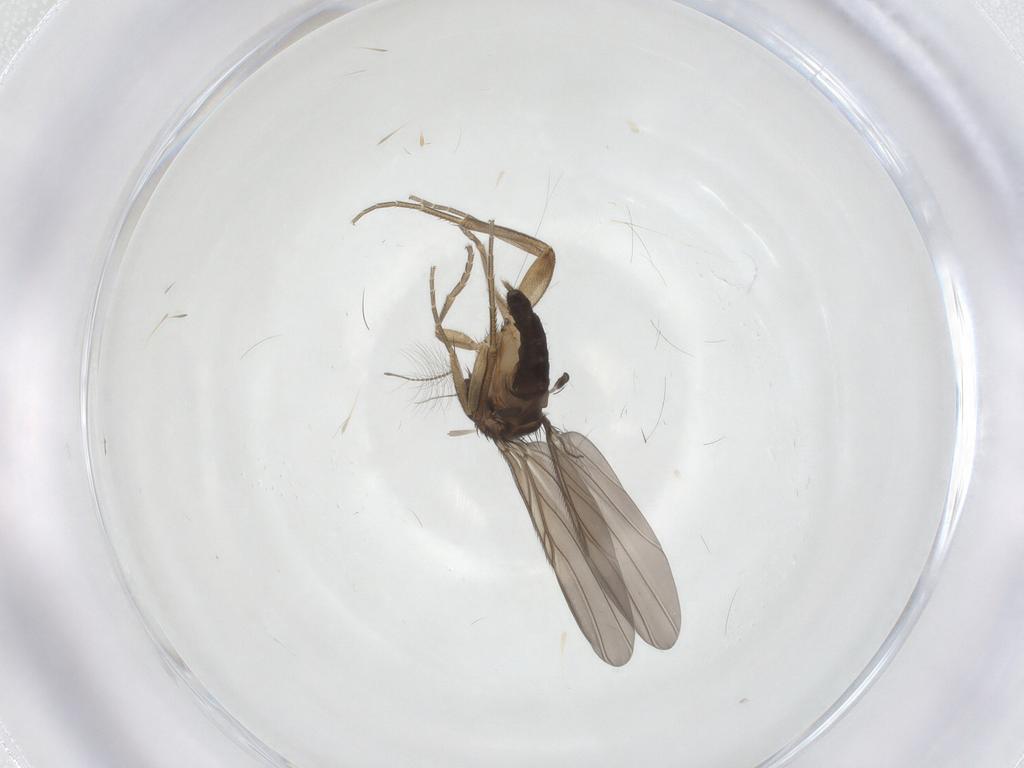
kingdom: Animalia
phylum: Arthropoda
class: Insecta
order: Diptera
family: Phoridae
